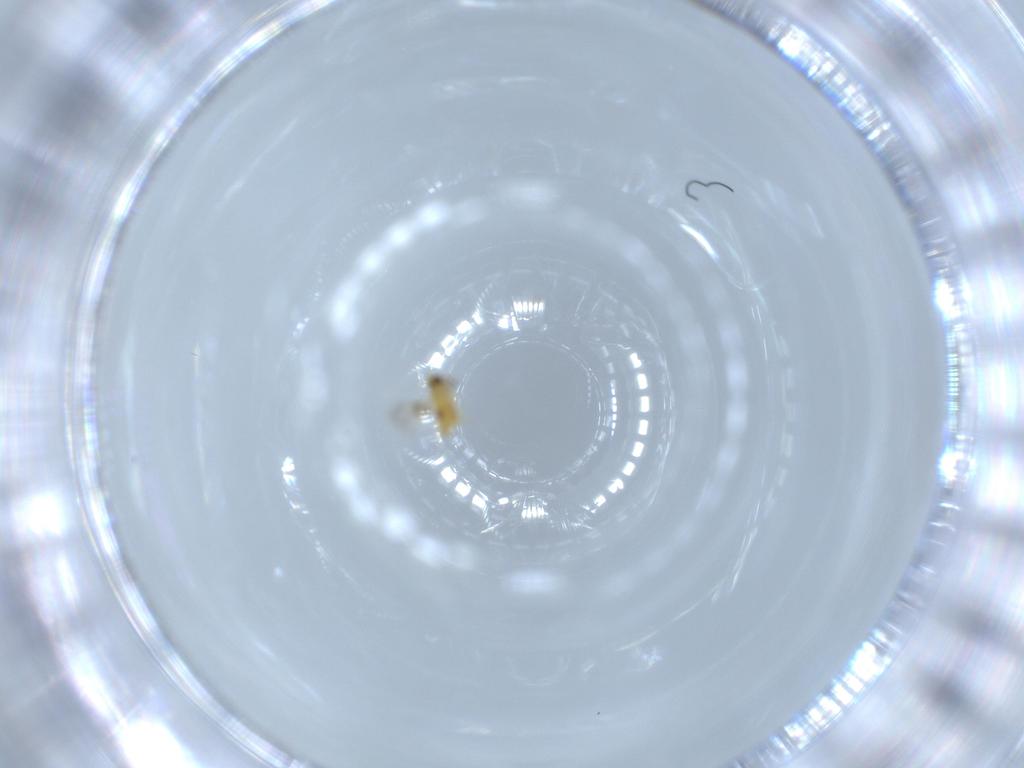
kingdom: Animalia
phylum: Arthropoda
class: Insecta
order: Hymenoptera
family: Signiphoridae
